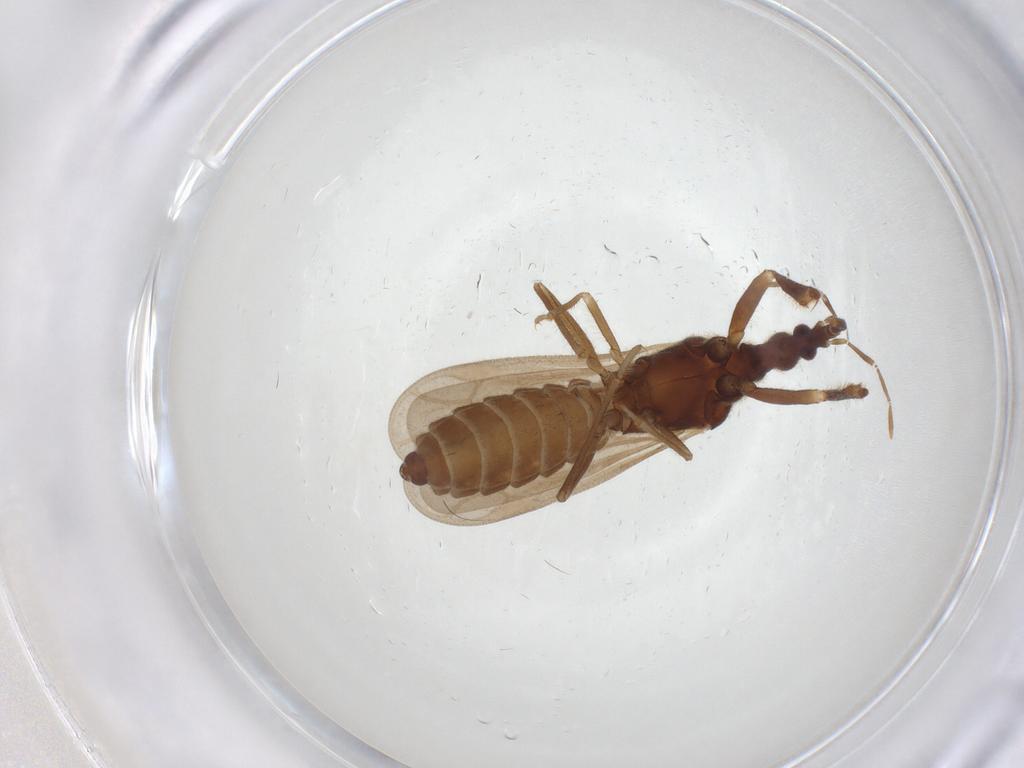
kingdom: Animalia
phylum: Arthropoda
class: Insecta
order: Hemiptera
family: Enicocephalidae
